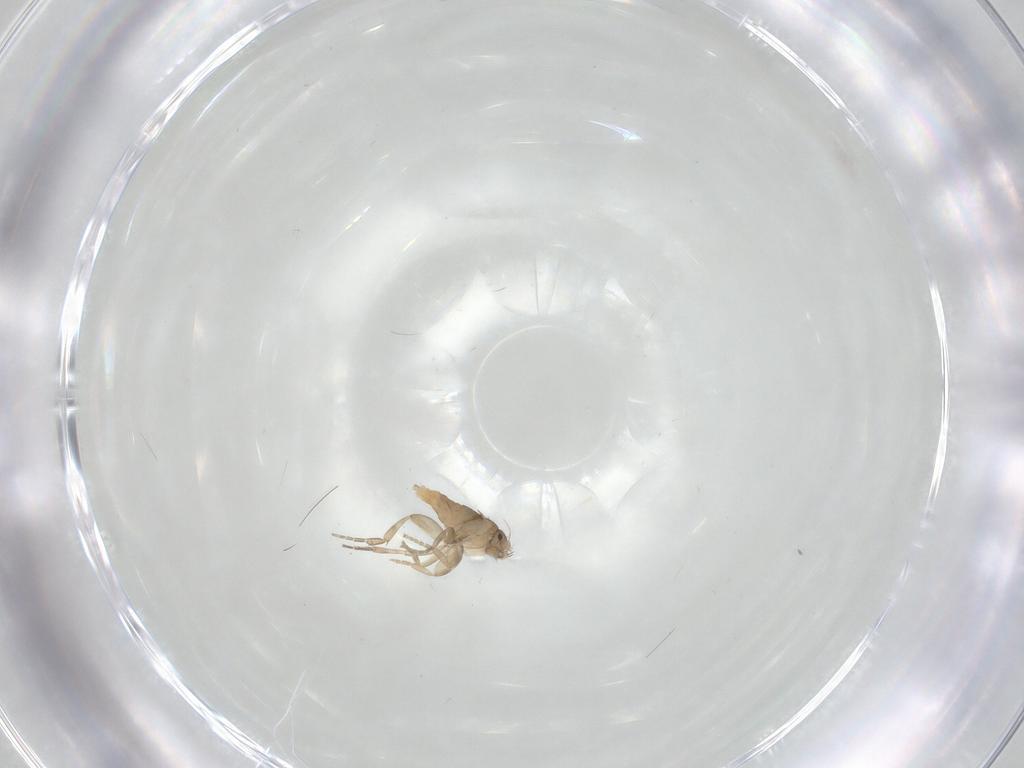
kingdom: Animalia
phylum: Arthropoda
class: Insecta
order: Diptera
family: Phoridae
